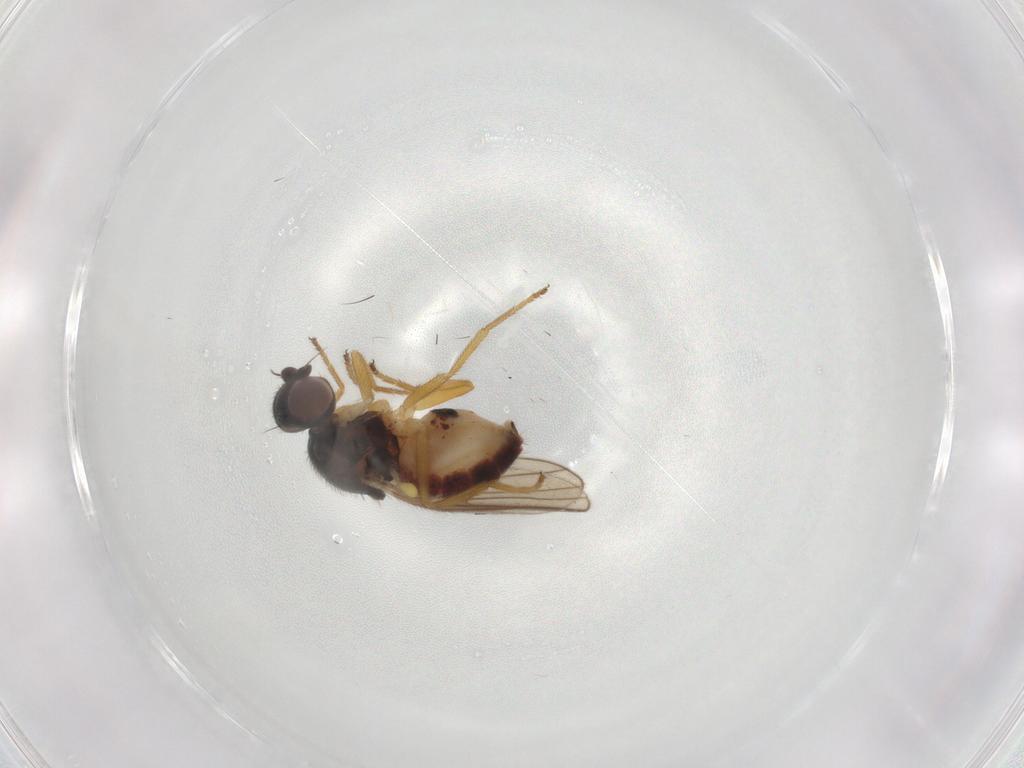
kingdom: Animalia
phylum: Arthropoda
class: Insecta
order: Diptera
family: Chloropidae
